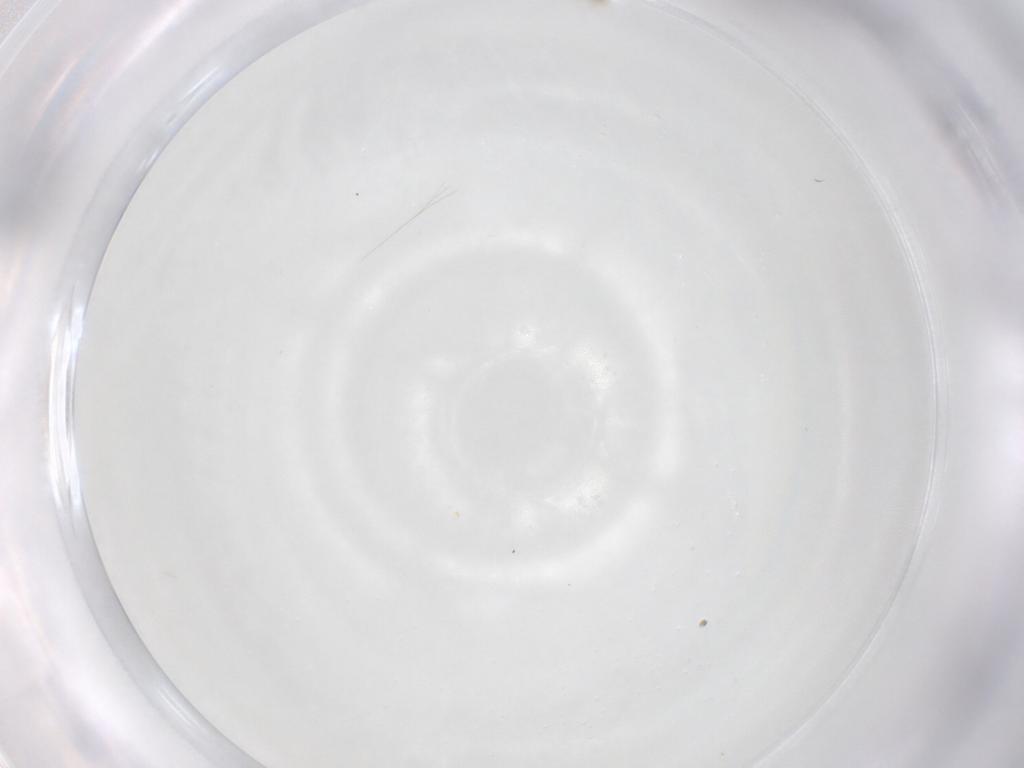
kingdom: Animalia
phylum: Arthropoda
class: Insecta
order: Diptera
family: Cecidomyiidae
